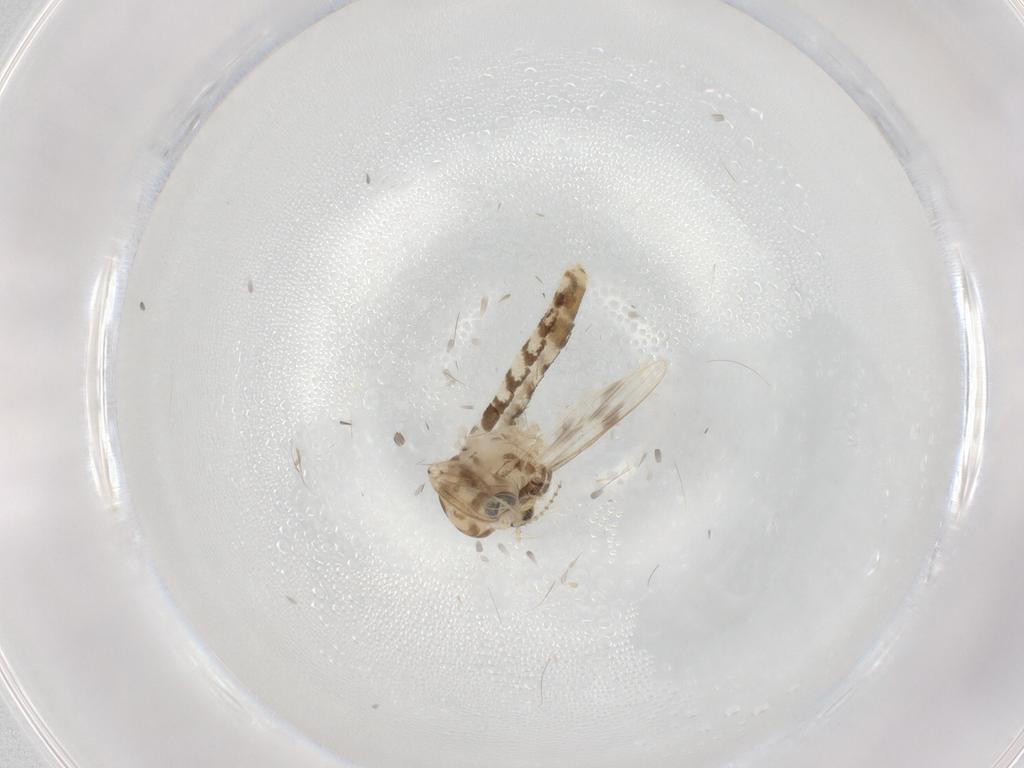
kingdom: Animalia
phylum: Arthropoda
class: Insecta
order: Diptera
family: Corethrellidae
